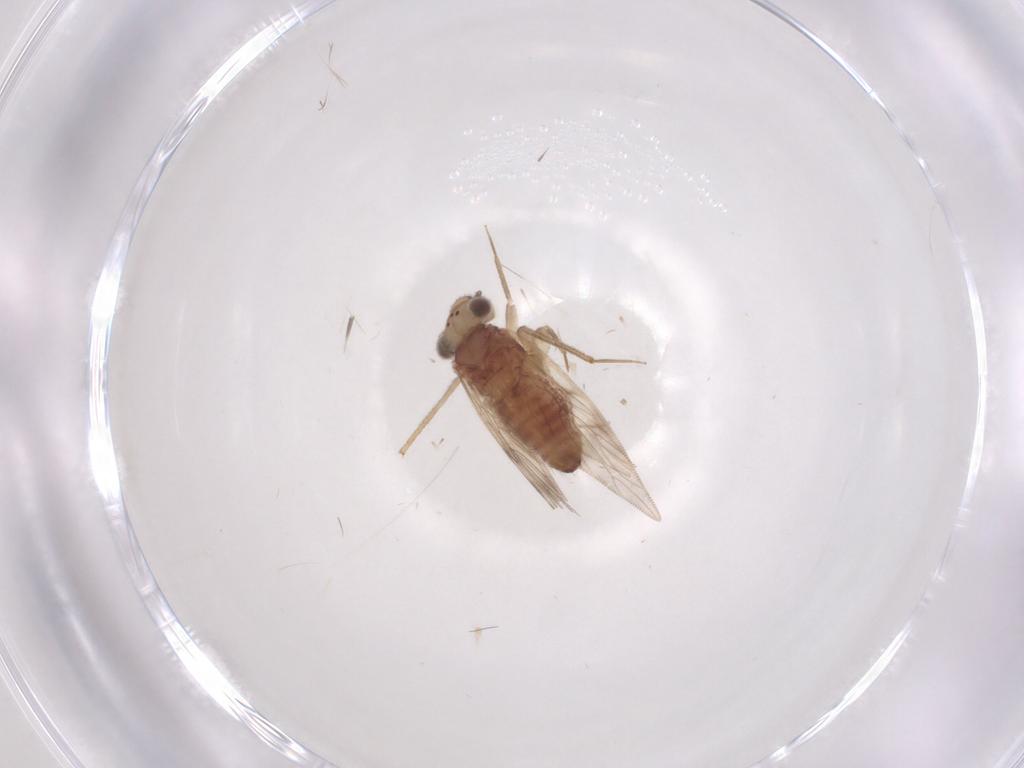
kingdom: Animalia
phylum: Arthropoda
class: Insecta
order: Psocodea
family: Lepidopsocidae
